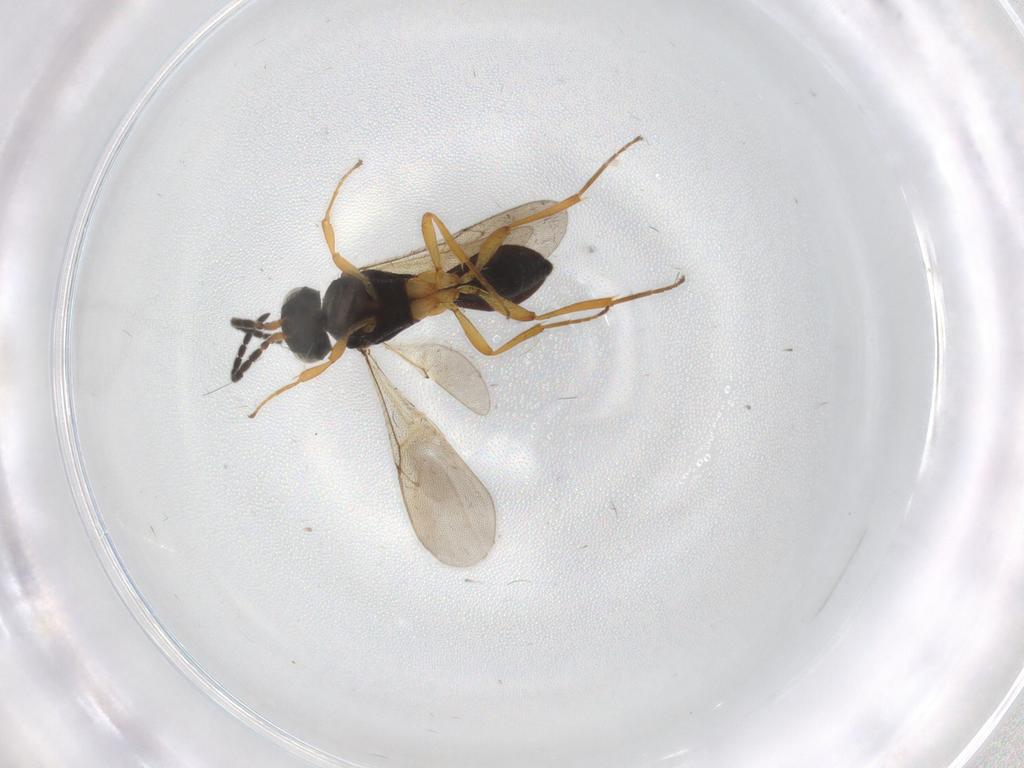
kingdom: Animalia
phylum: Arthropoda
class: Insecta
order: Hymenoptera
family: Scelionidae
